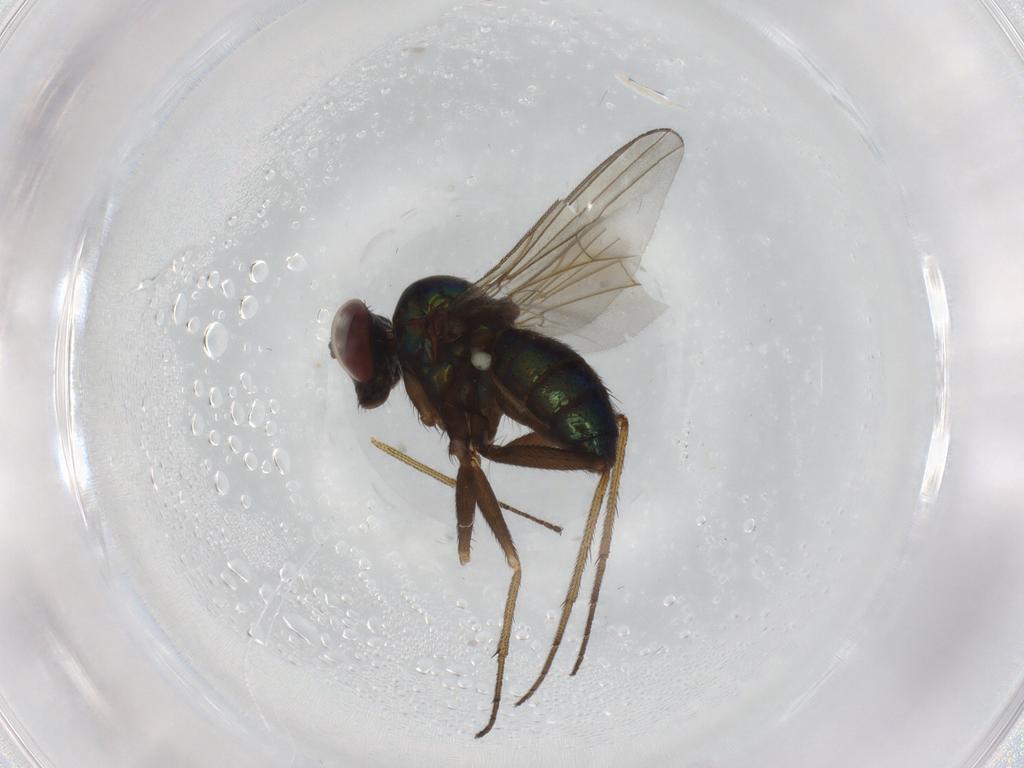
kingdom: Animalia
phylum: Arthropoda
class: Insecta
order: Diptera
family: Dolichopodidae
